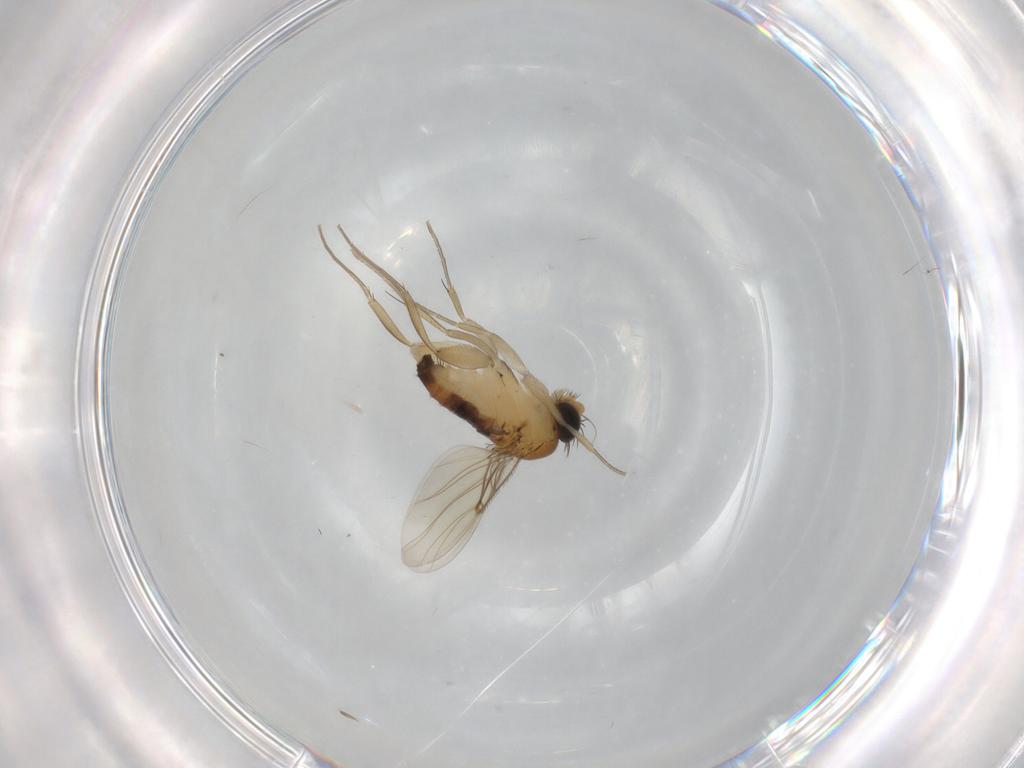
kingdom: Animalia
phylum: Arthropoda
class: Insecta
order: Diptera
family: Phoridae
